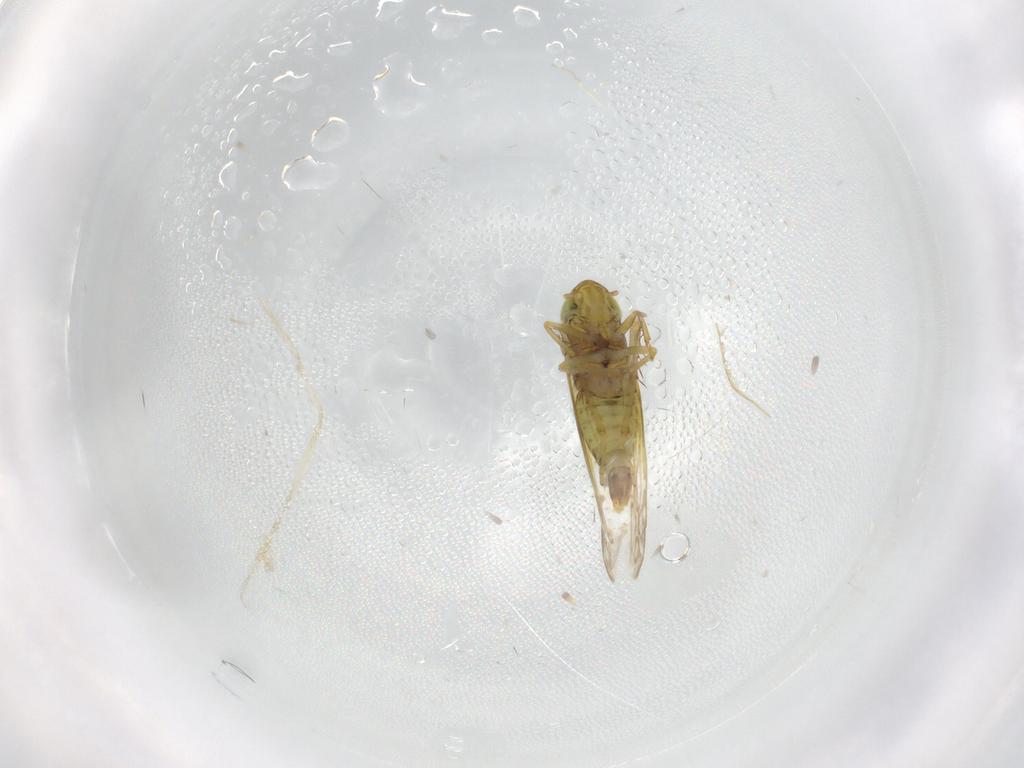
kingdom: Animalia
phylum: Arthropoda
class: Insecta
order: Hemiptera
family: Cicadellidae
